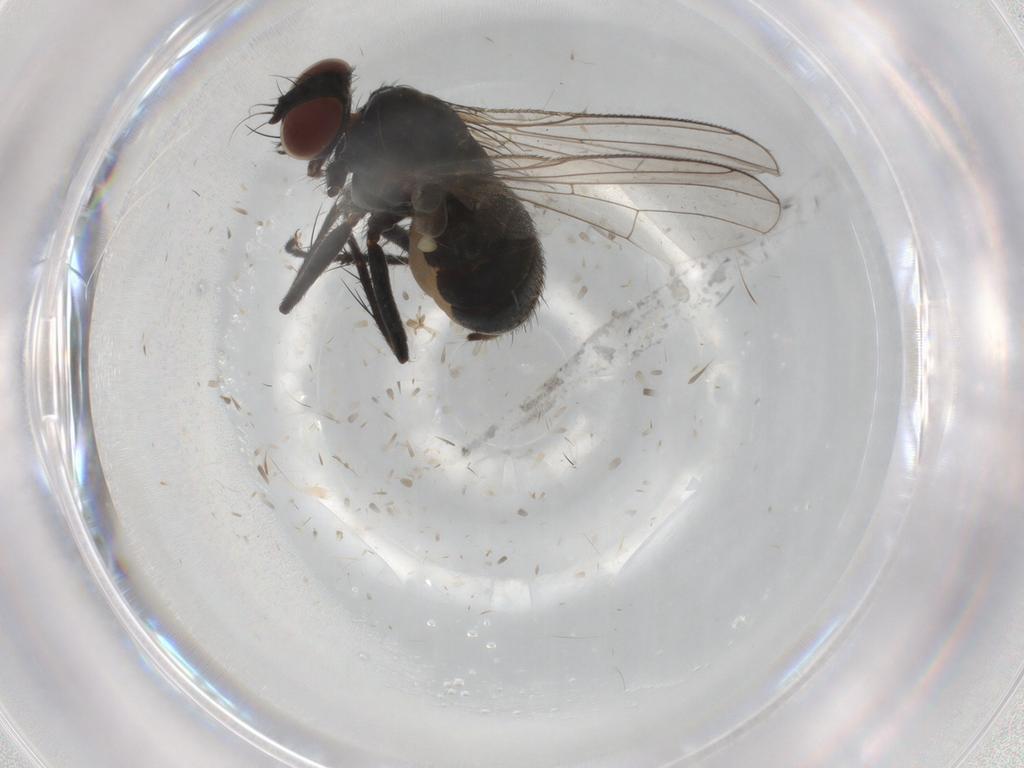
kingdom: Animalia
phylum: Arthropoda
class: Insecta
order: Diptera
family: Muscidae
